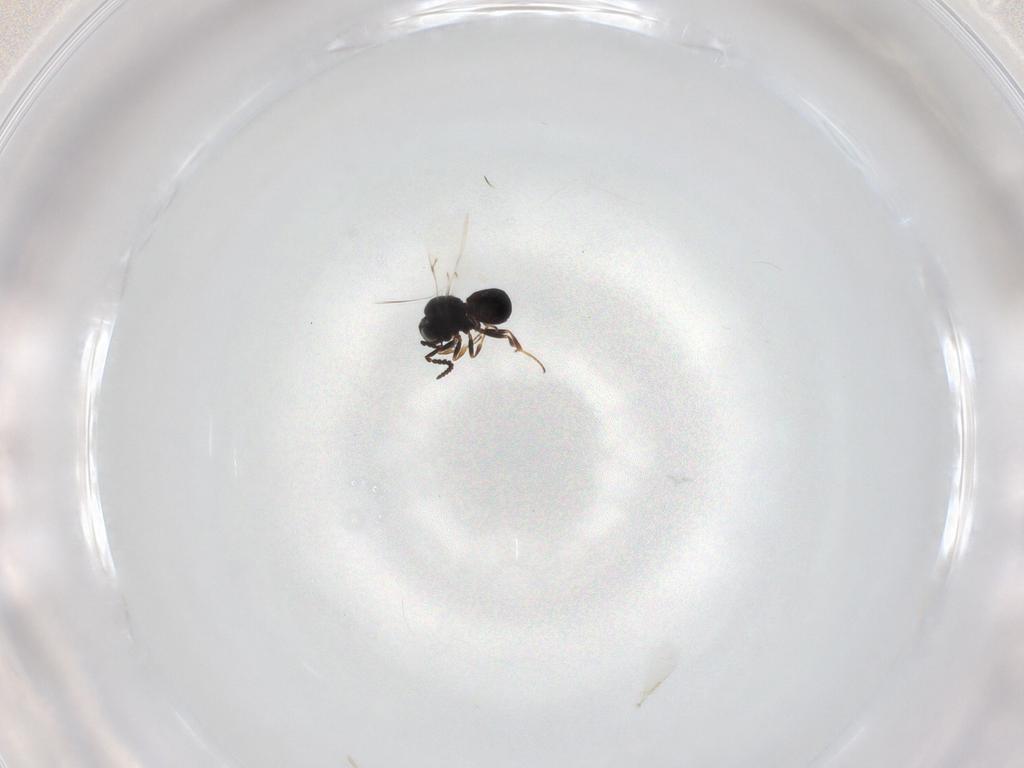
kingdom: Animalia
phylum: Arthropoda
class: Insecta
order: Hymenoptera
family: Scelionidae
